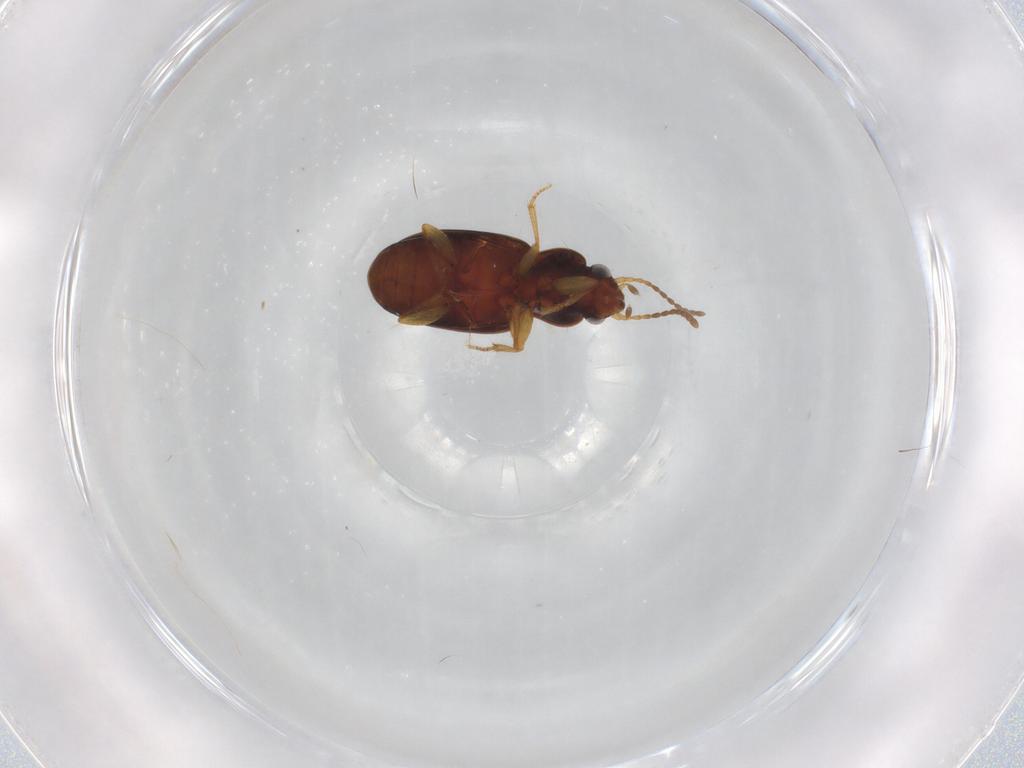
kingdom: Animalia
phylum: Arthropoda
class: Insecta
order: Coleoptera
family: Carabidae
